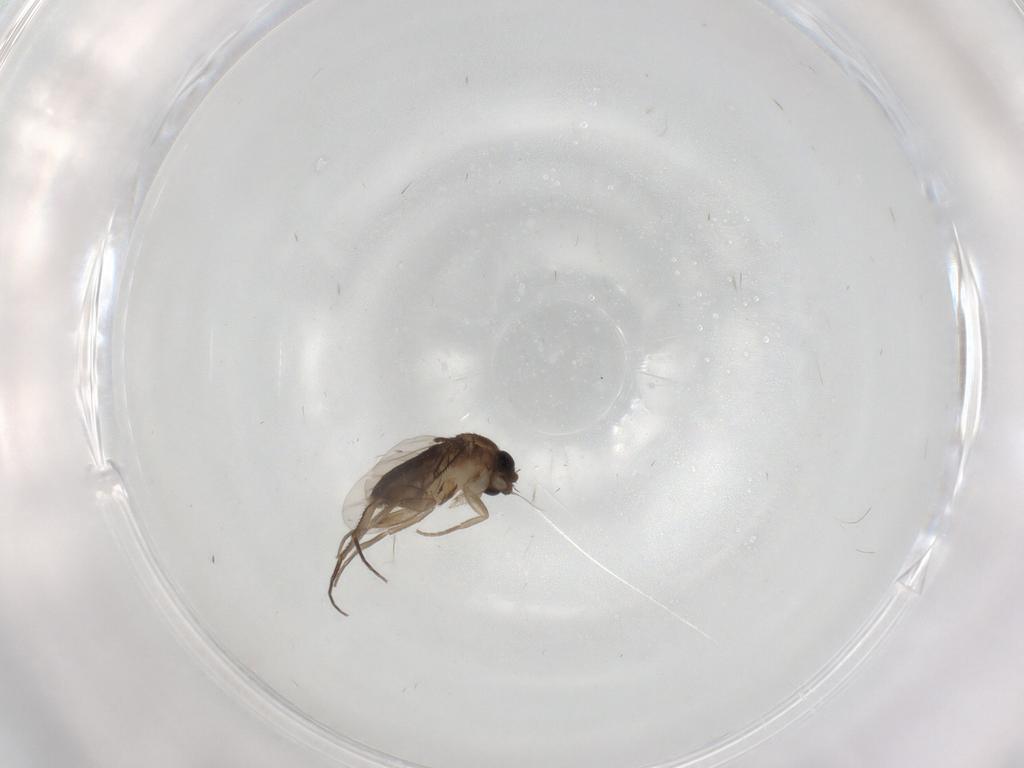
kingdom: Animalia
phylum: Arthropoda
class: Insecta
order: Diptera
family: Phoridae
